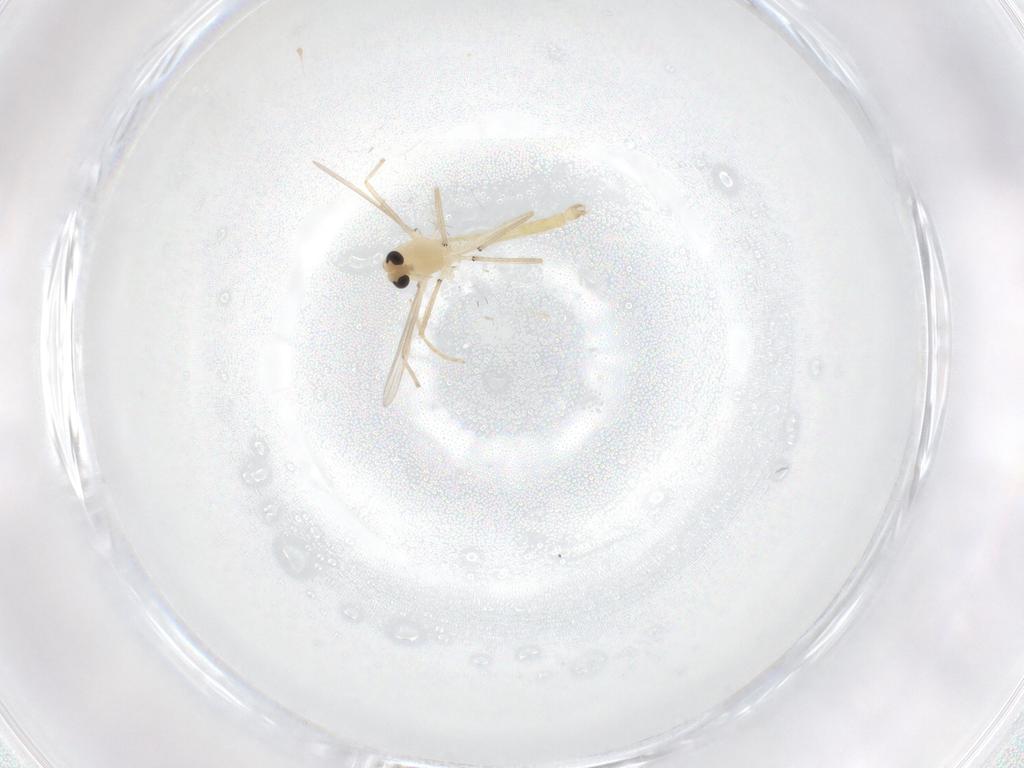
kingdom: Animalia
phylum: Arthropoda
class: Insecta
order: Diptera
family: Chironomidae
